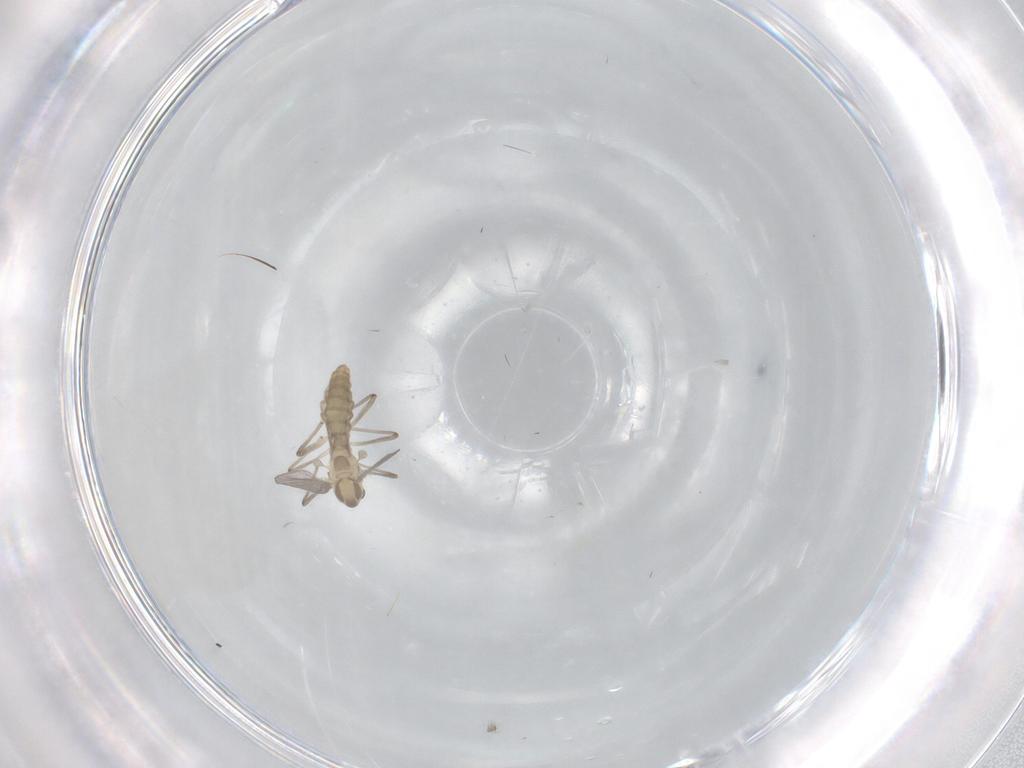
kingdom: Animalia
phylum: Arthropoda
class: Insecta
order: Diptera
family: Chironomidae
